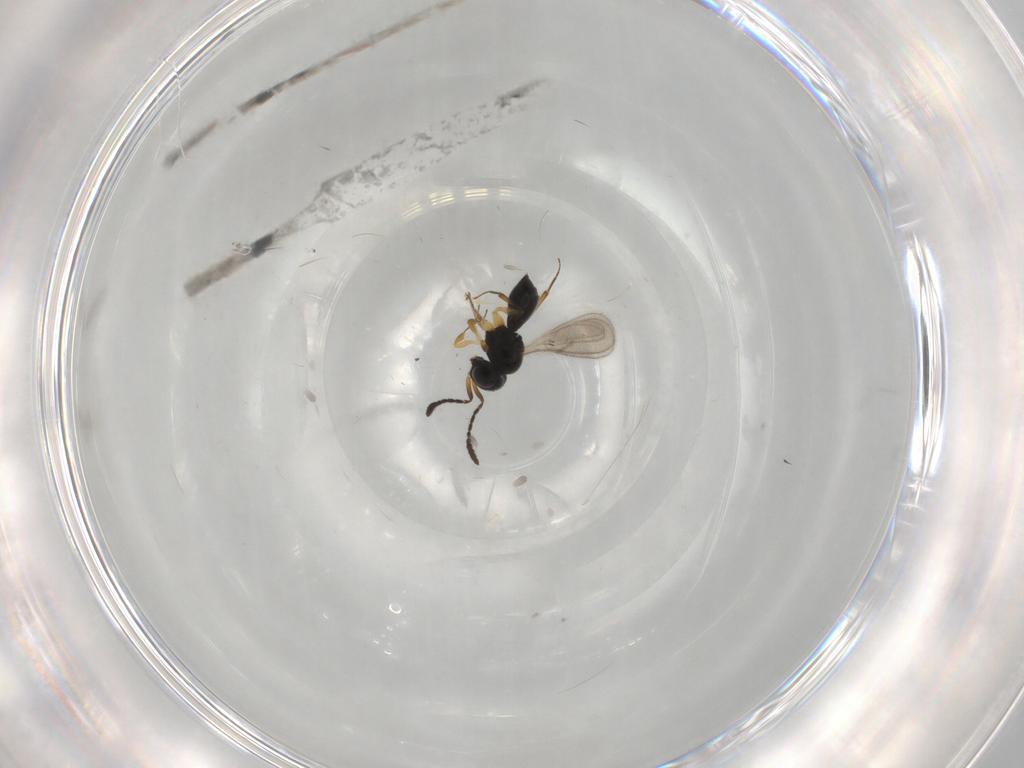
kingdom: Animalia
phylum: Arthropoda
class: Insecta
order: Hymenoptera
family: Scelionidae
